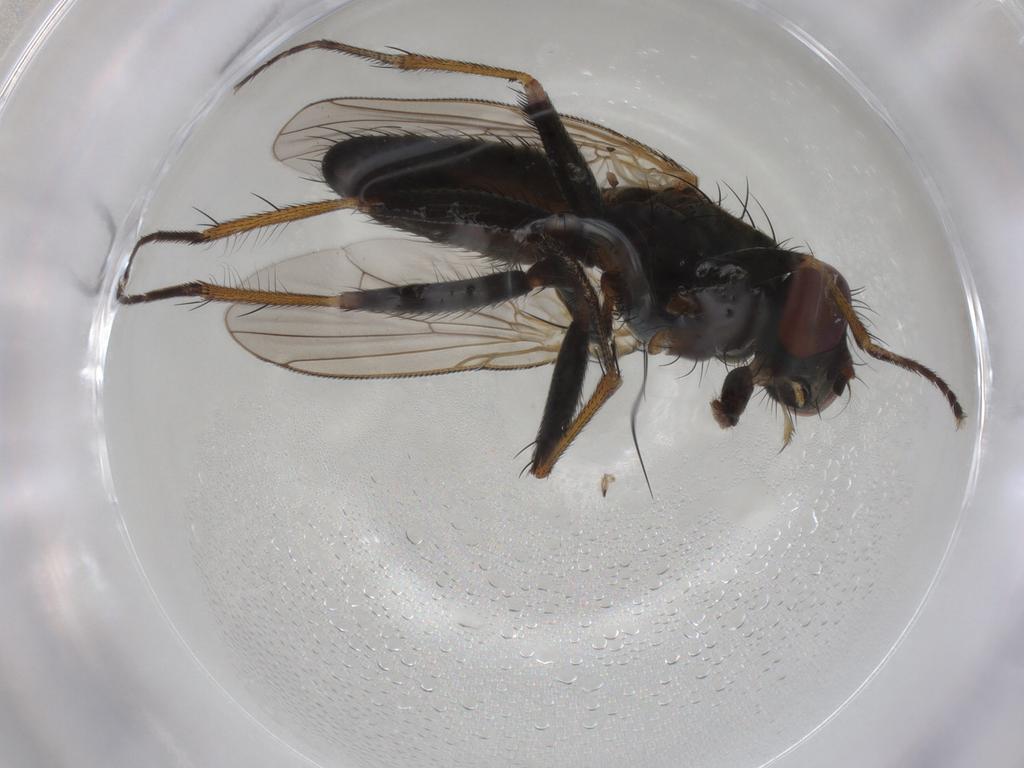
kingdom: Animalia
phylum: Arthropoda
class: Insecta
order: Diptera
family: Muscidae
